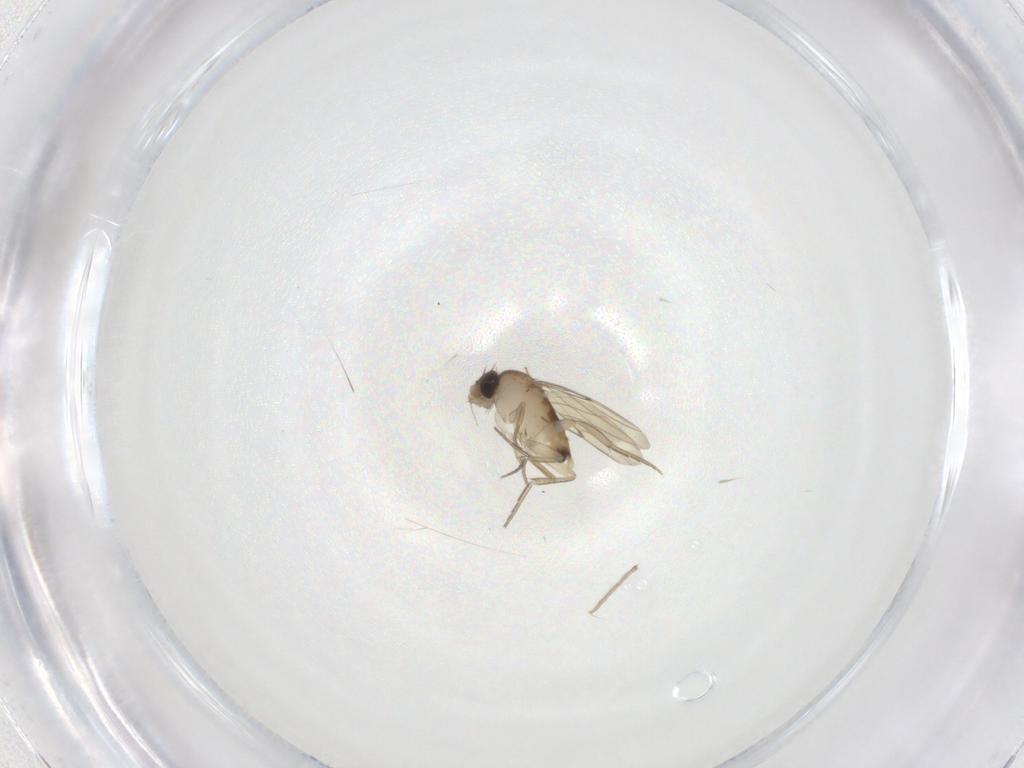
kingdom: Animalia
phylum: Arthropoda
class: Insecta
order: Diptera
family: Phoridae
